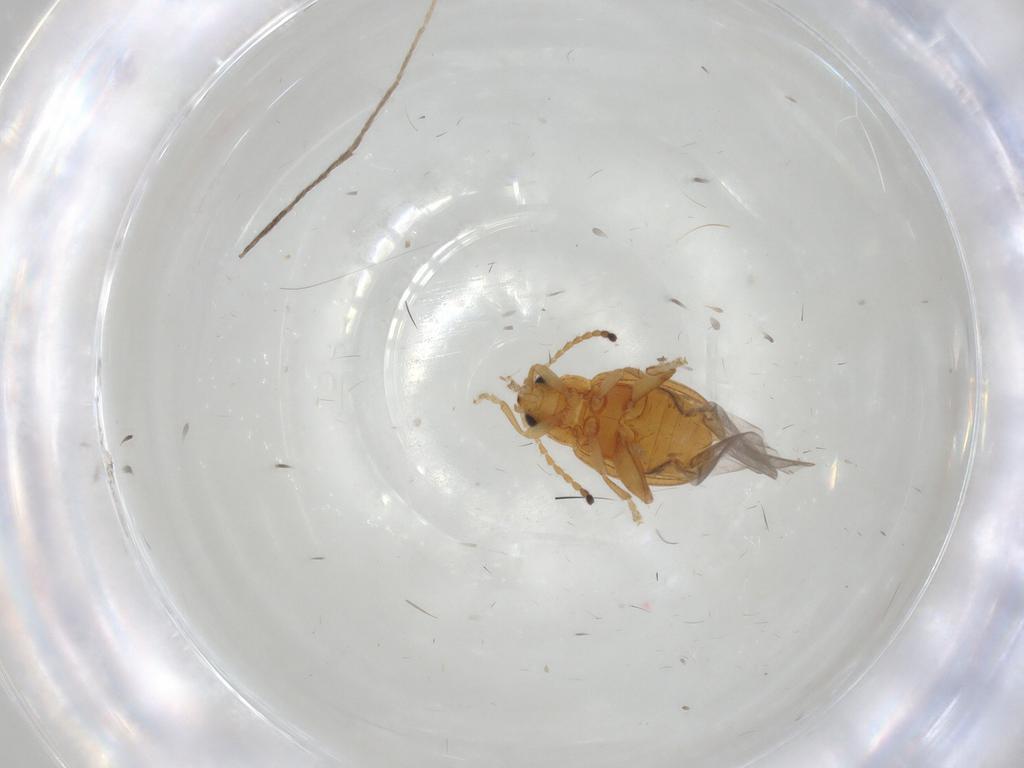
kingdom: Animalia
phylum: Arthropoda
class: Insecta
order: Coleoptera
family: Chrysomelidae
